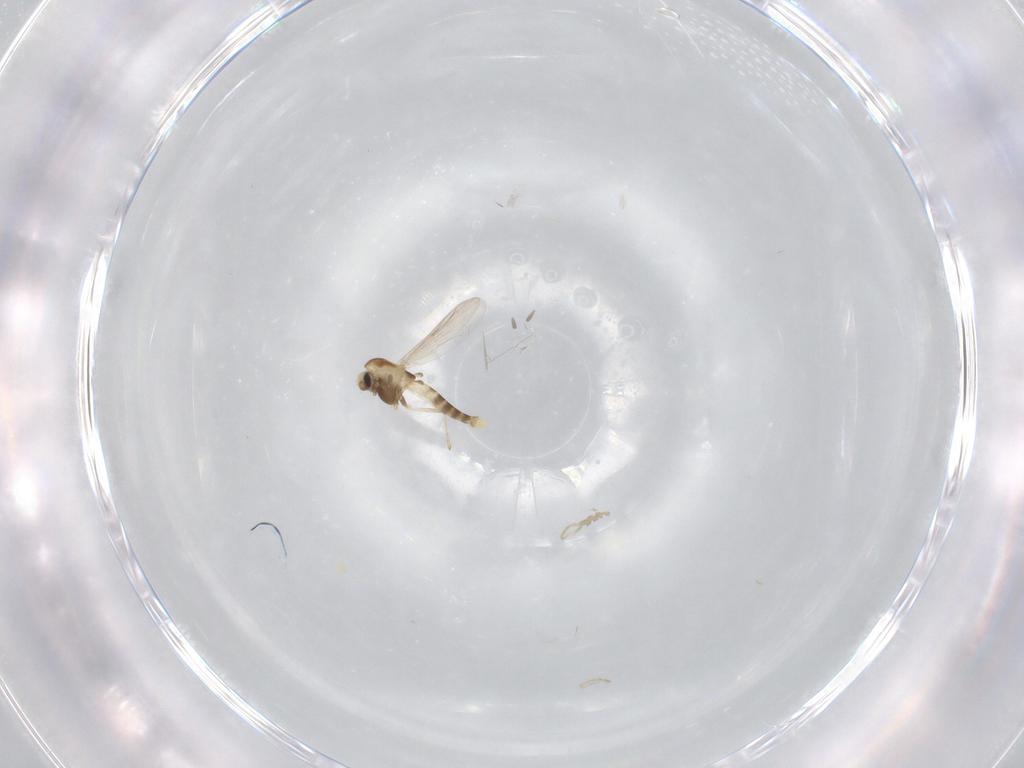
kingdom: Animalia
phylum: Arthropoda
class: Insecta
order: Diptera
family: Chironomidae
